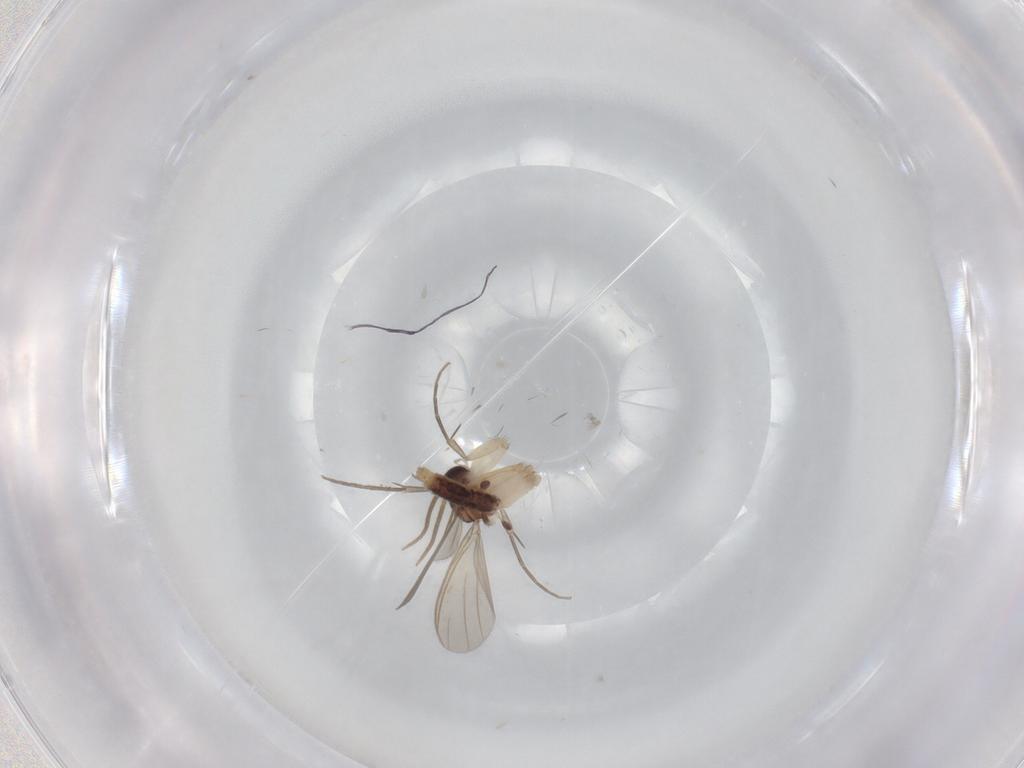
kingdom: Animalia
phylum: Arthropoda
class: Insecta
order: Diptera
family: Mycetophilidae
